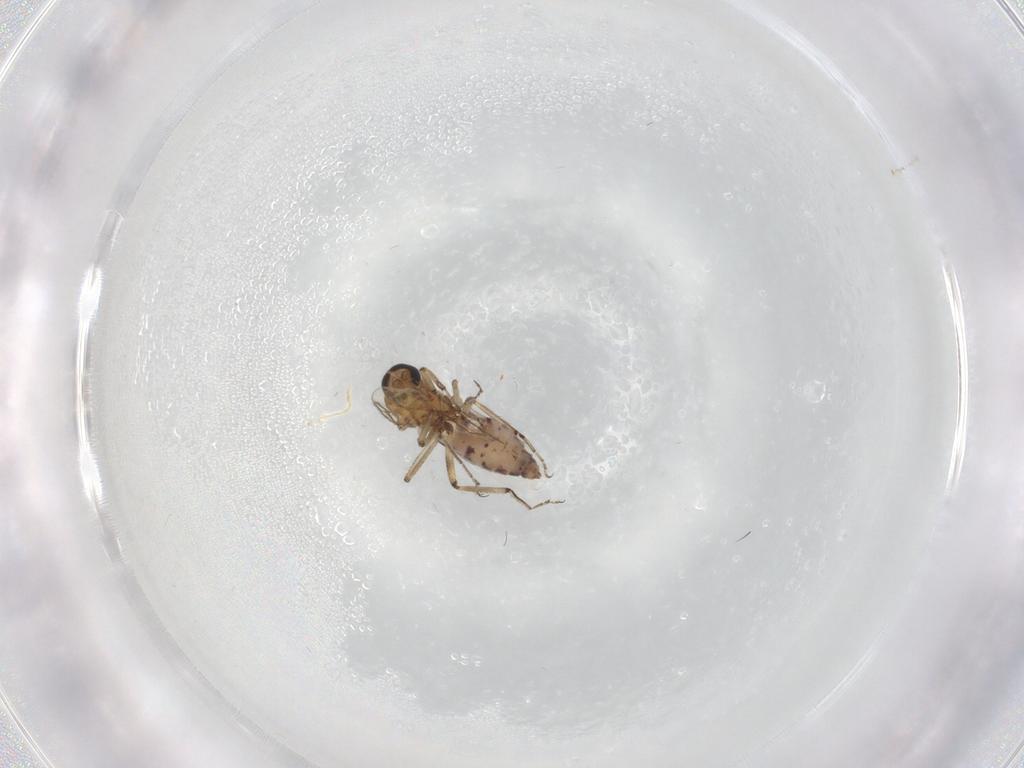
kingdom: Animalia
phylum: Arthropoda
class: Insecta
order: Diptera
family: Ceratopogonidae
